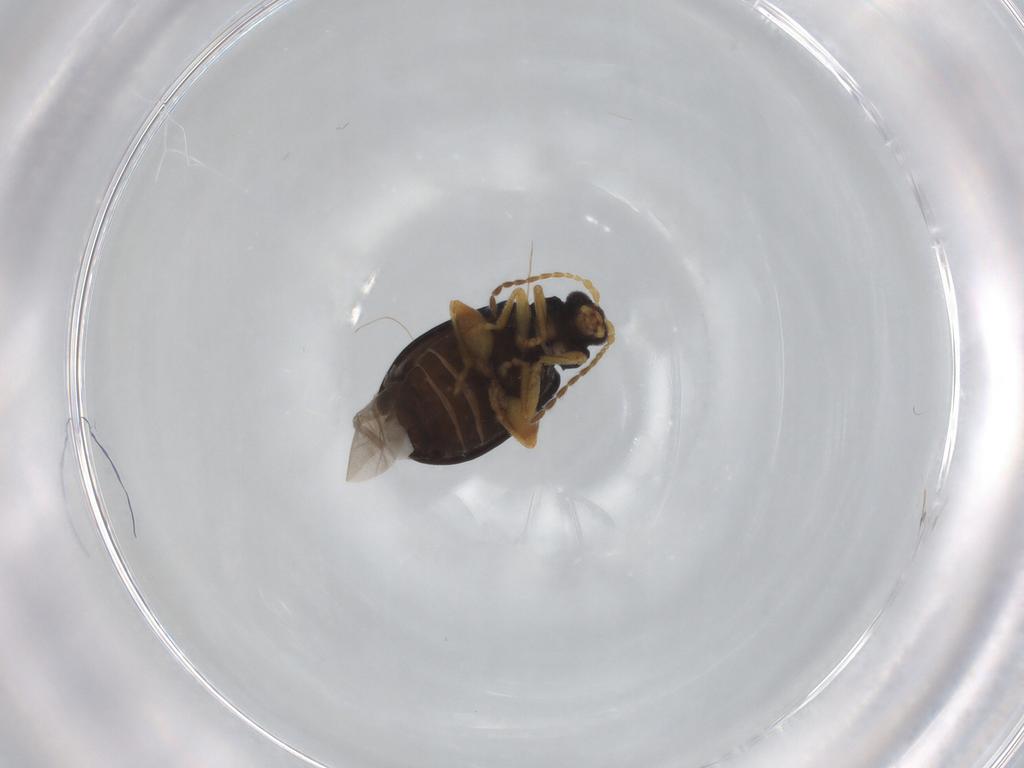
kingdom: Animalia
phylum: Arthropoda
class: Insecta
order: Coleoptera
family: Chrysomelidae
